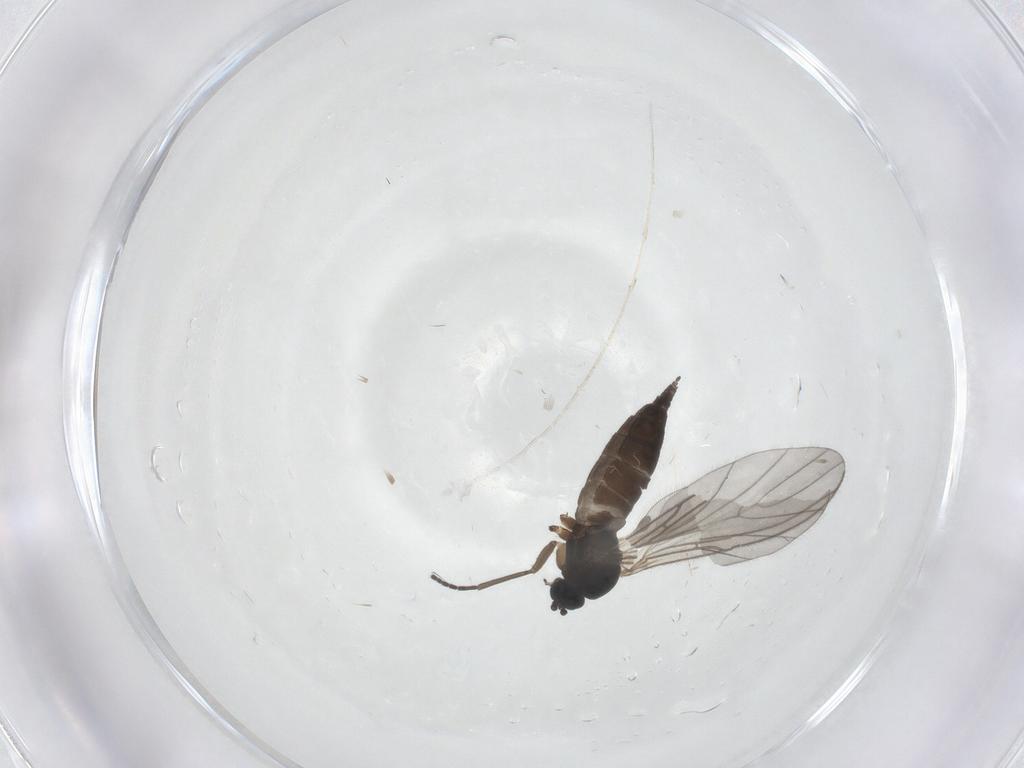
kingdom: Animalia
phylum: Arthropoda
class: Insecta
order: Diptera
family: Sciaridae
